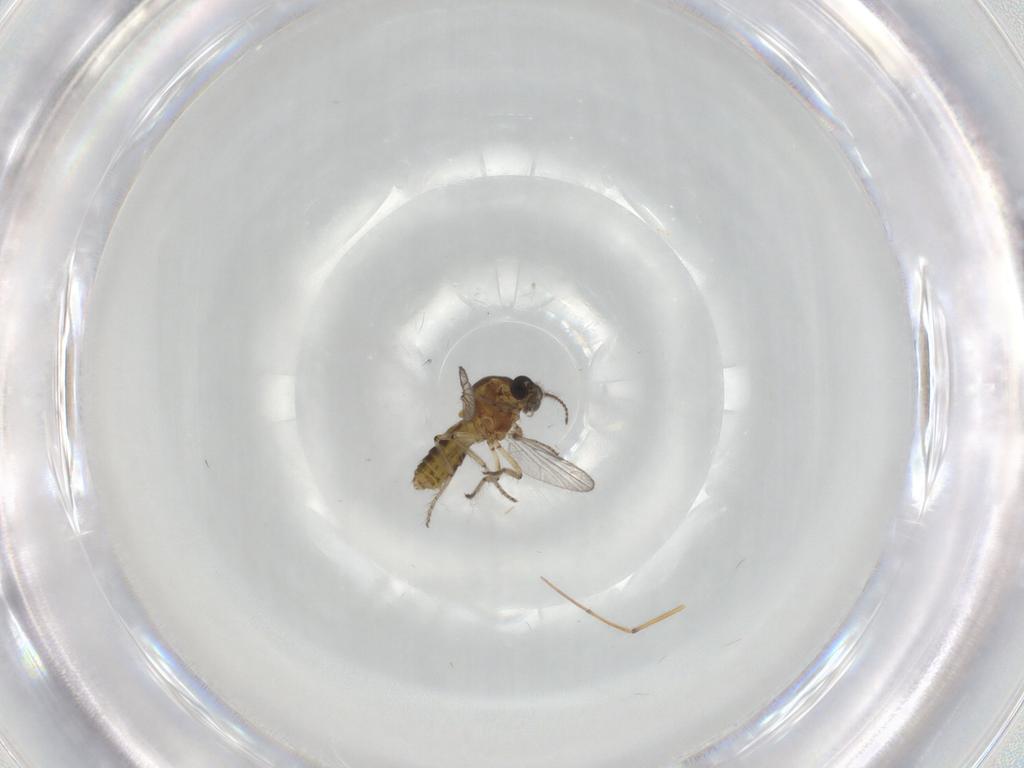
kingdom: Animalia
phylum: Arthropoda
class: Insecta
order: Diptera
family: Ceratopogonidae
